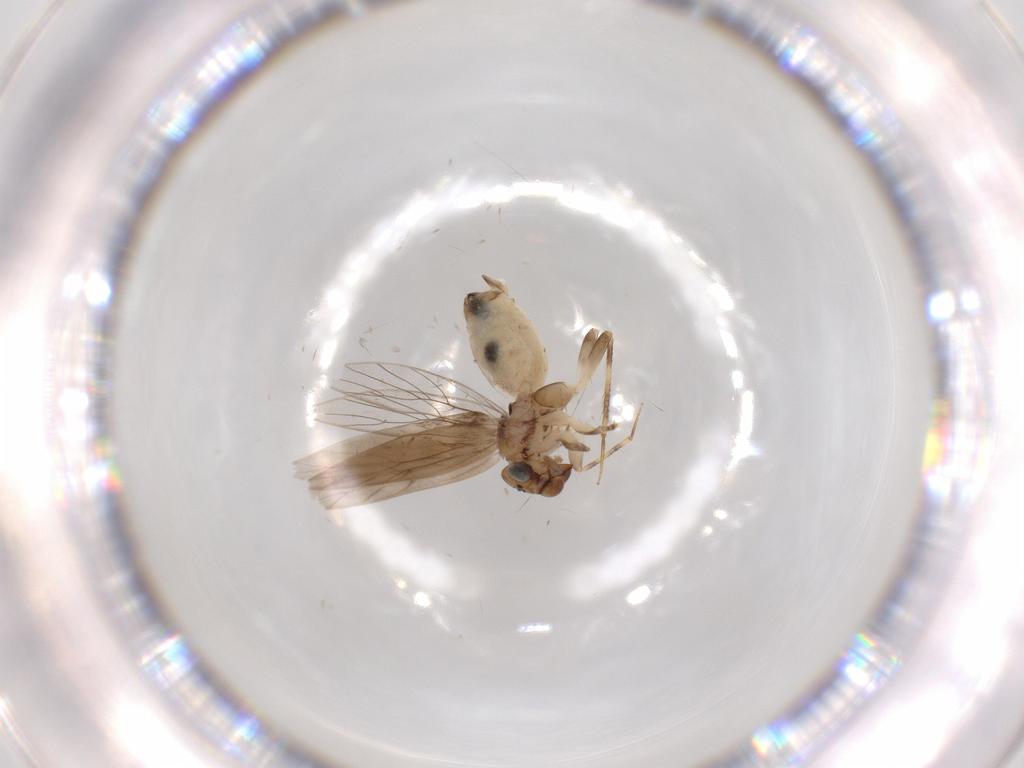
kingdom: Animalia
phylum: Arthropoda
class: Insecta
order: Psocodea
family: Lepidopsocidae
